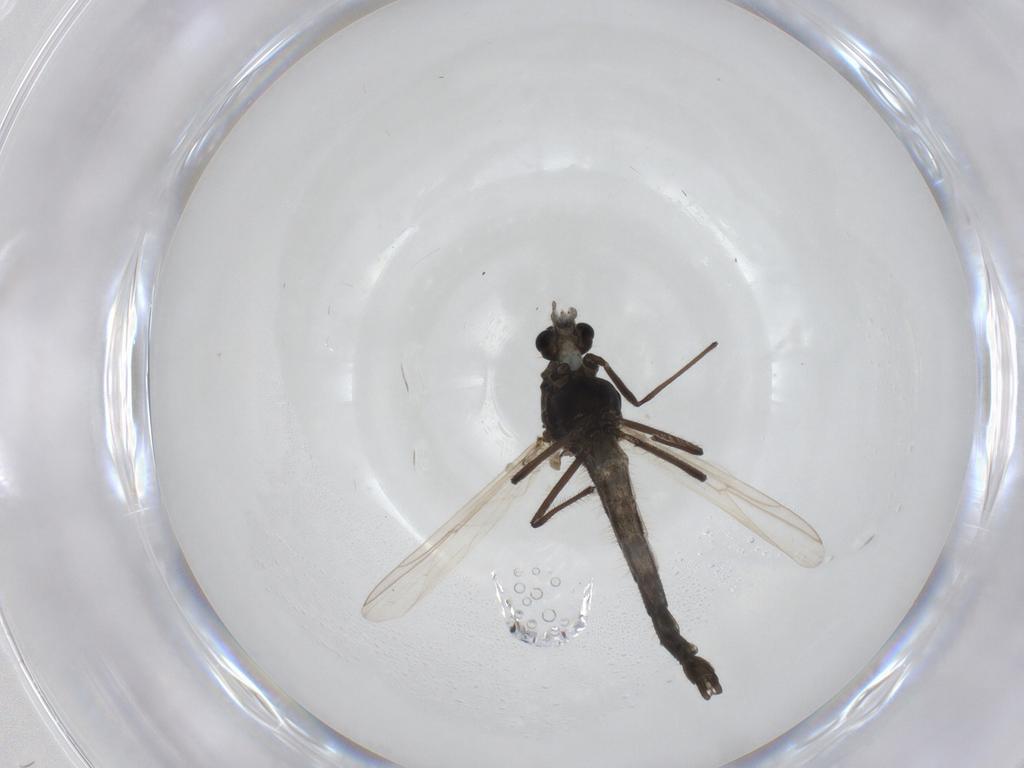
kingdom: Animalia
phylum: Arthropoda
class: Insecta
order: Diptera
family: Chironomidae
